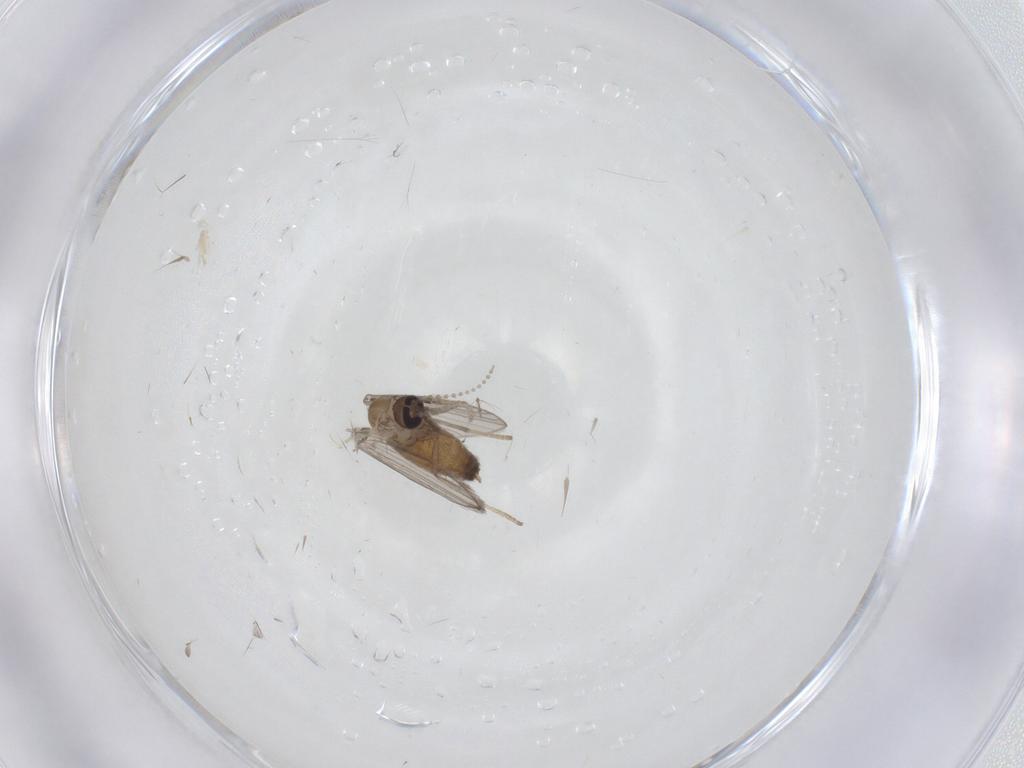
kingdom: Animalia
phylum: Arthropoda
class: Insecta
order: Diptera
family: Psychodidae
